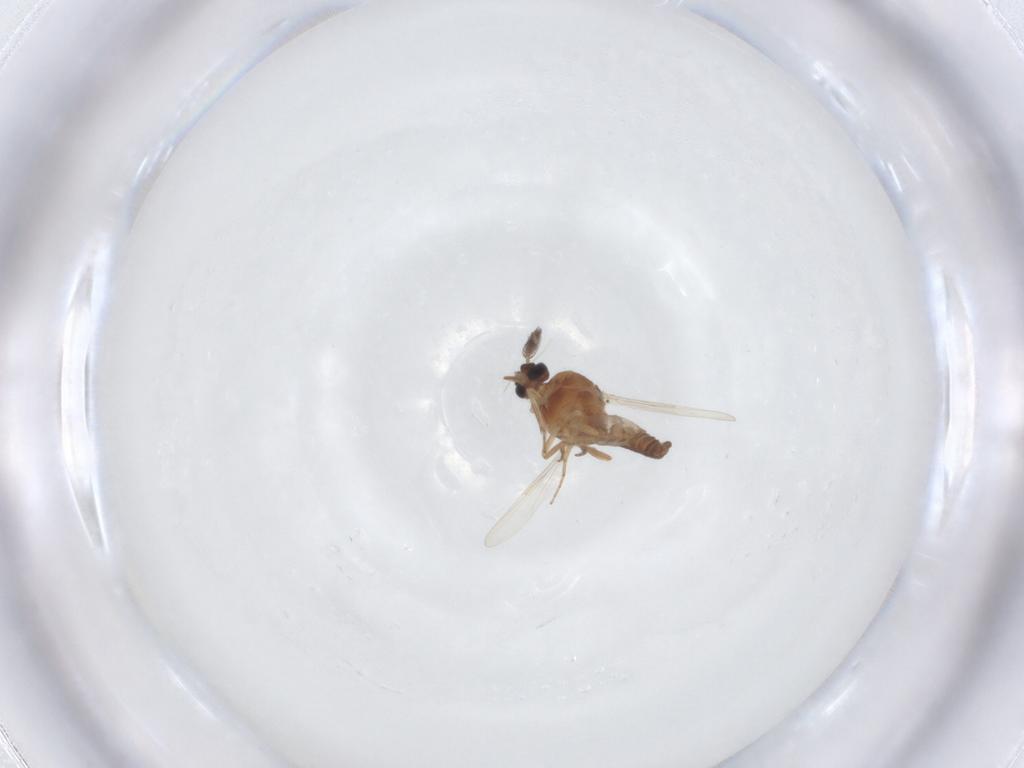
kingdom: Animalia
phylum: Arthropoda
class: Insecta
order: Diptera
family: Ceratopogonidae
